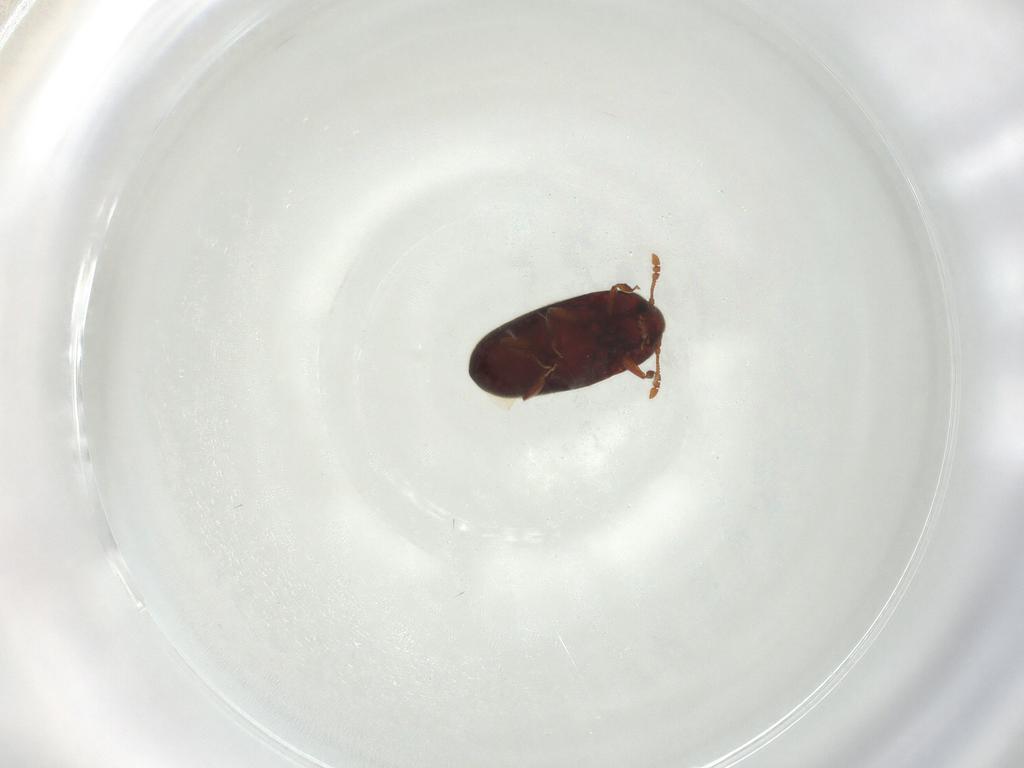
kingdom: Animalia
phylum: Arthropoda
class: Insecta
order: Coleoptera
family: Throscidae
